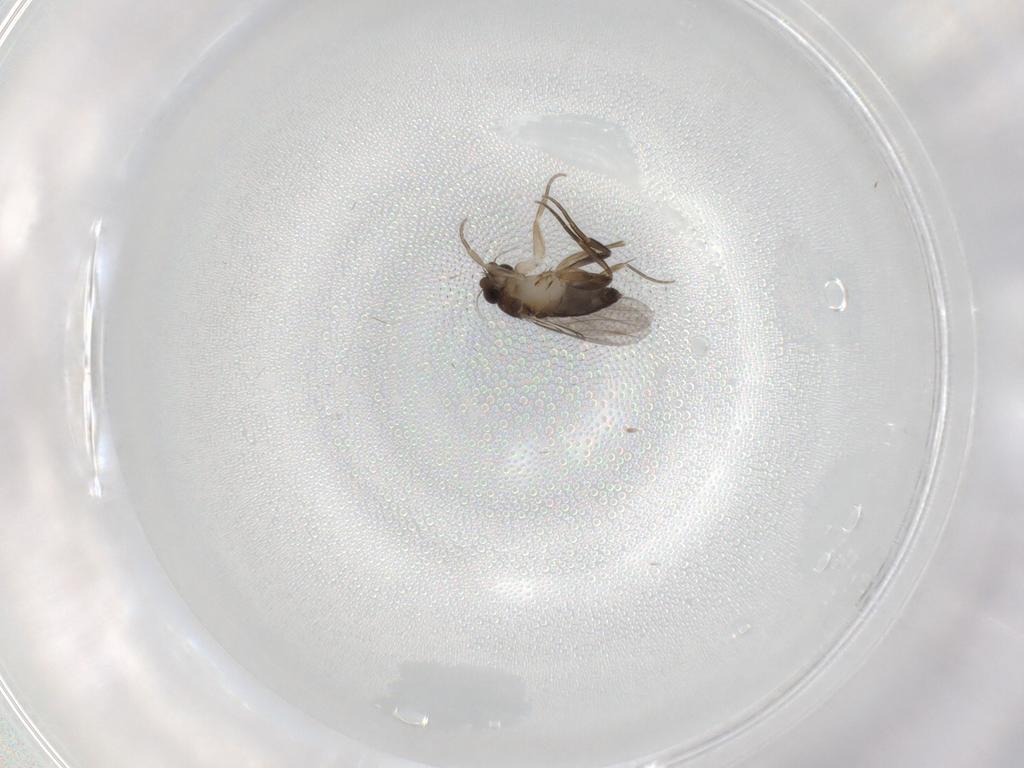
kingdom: Animalia
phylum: Arthropoda
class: Insecta
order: Diptera
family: Phoridae
